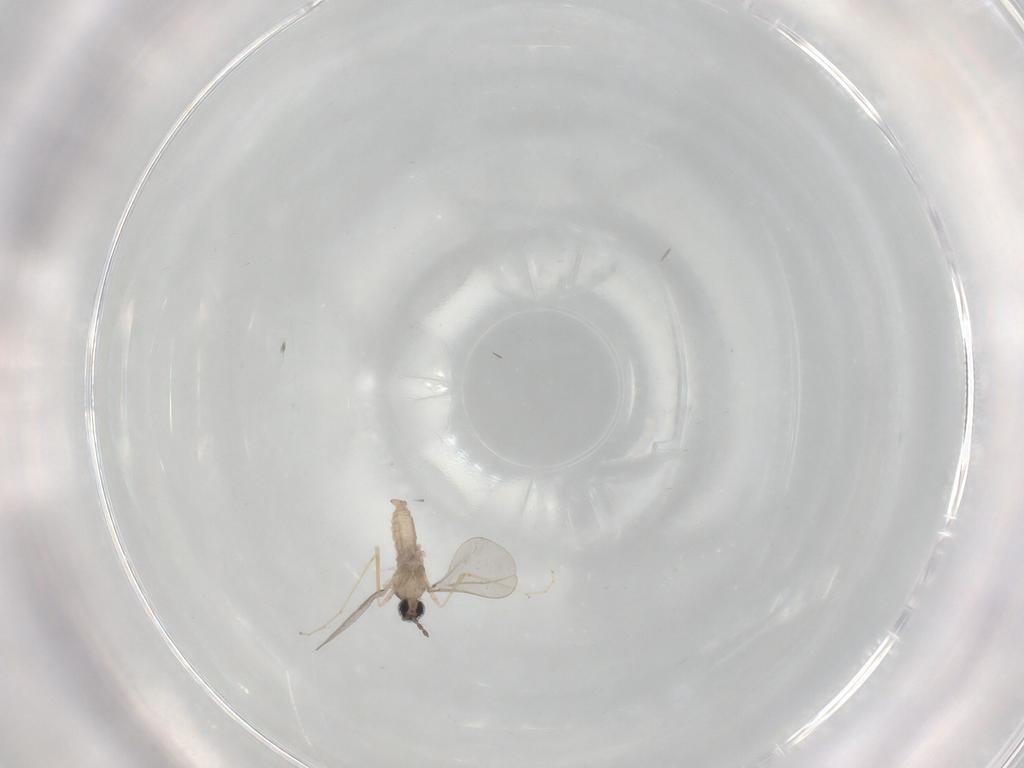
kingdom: Animalia
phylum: Arthropoda
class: Insecta
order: Diptera
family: Cecidomyiidae
